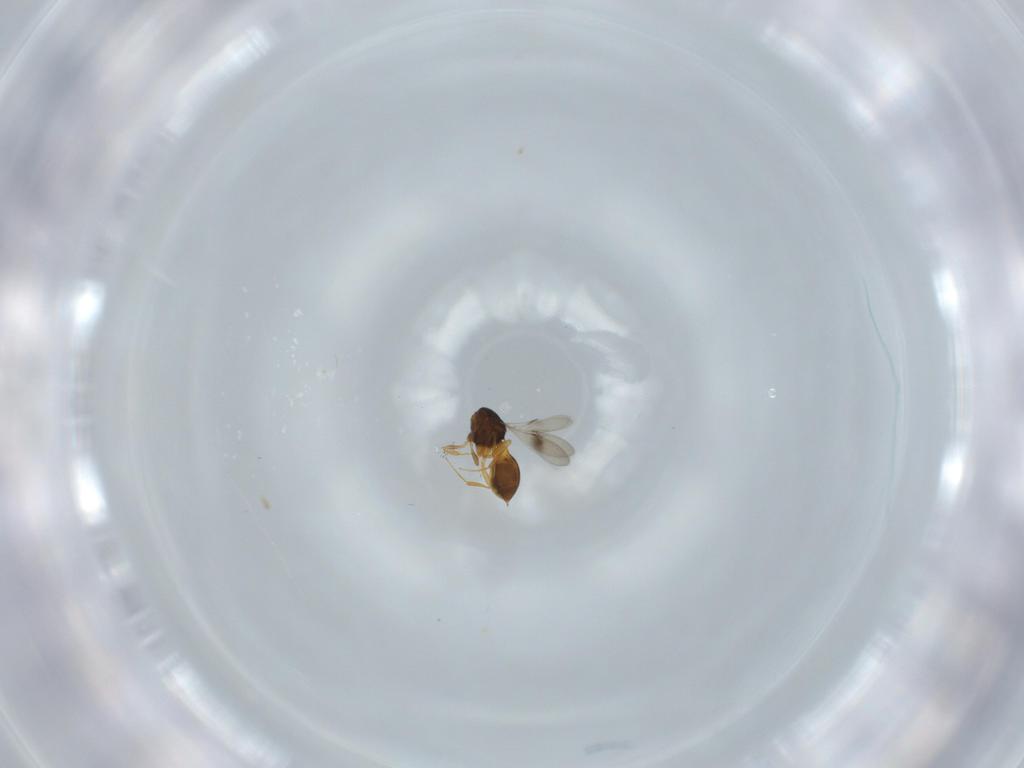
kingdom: Animalia
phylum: Arthropoda
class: Insecta
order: Hymenoptera
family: Scelionidae
